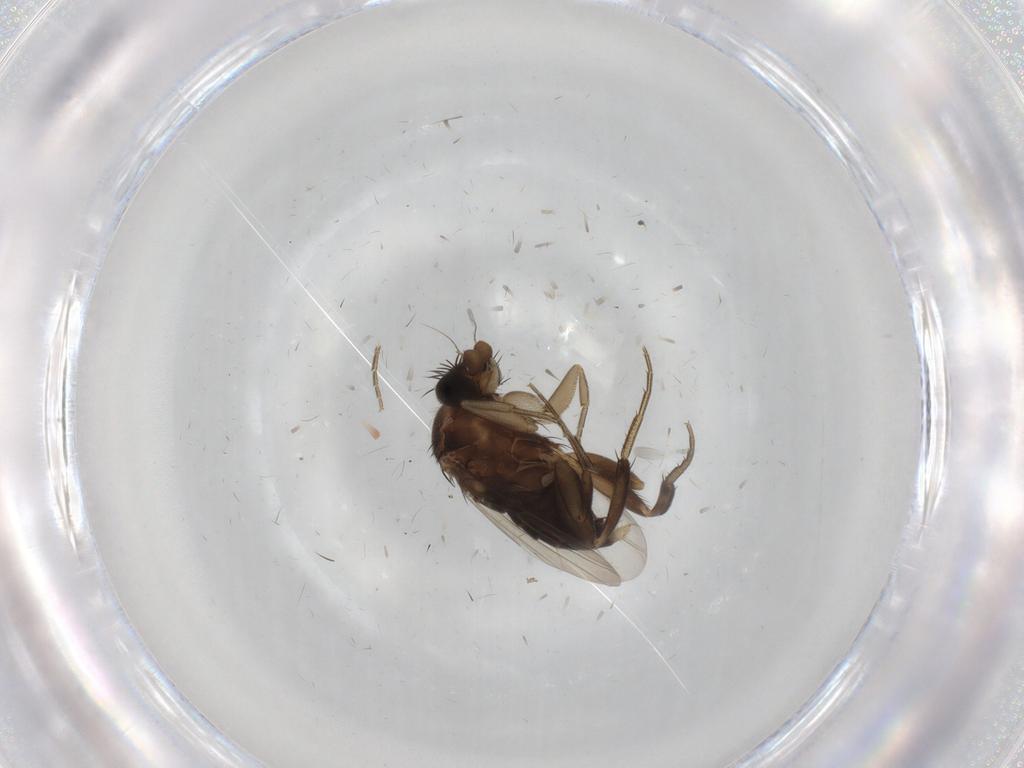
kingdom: Animalia
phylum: Arthropoda
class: Insecta
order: Diptera
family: Phoridae
